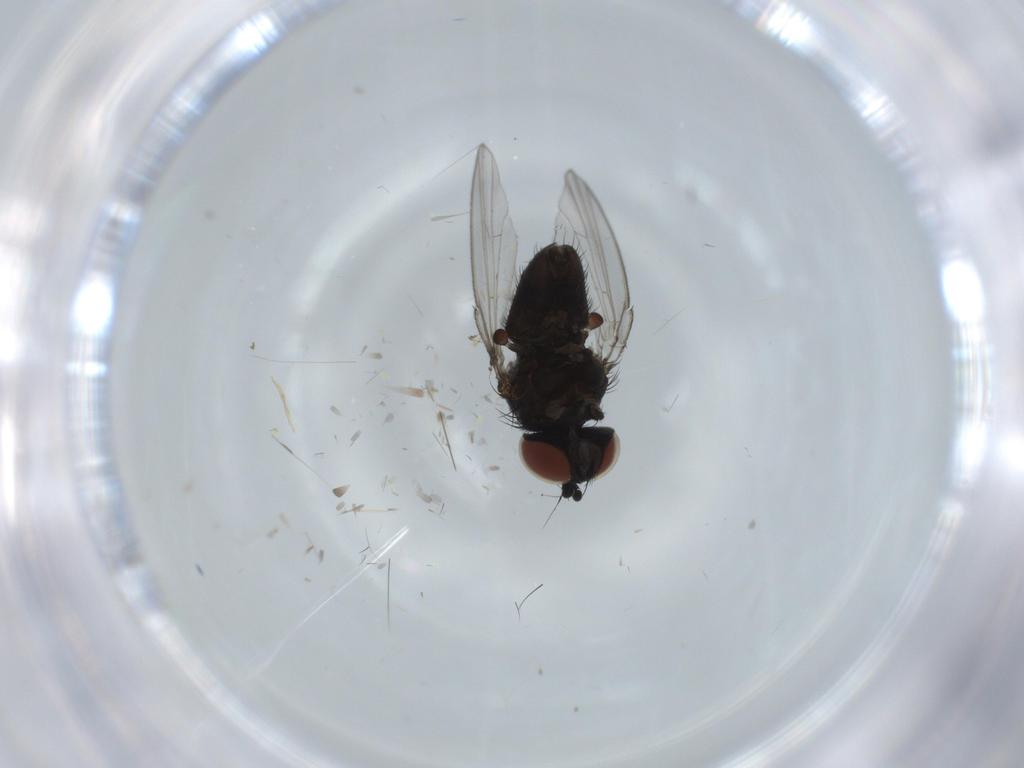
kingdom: Animalia
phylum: Arthropoda
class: Insecta
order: Diptera
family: Milichiidae
